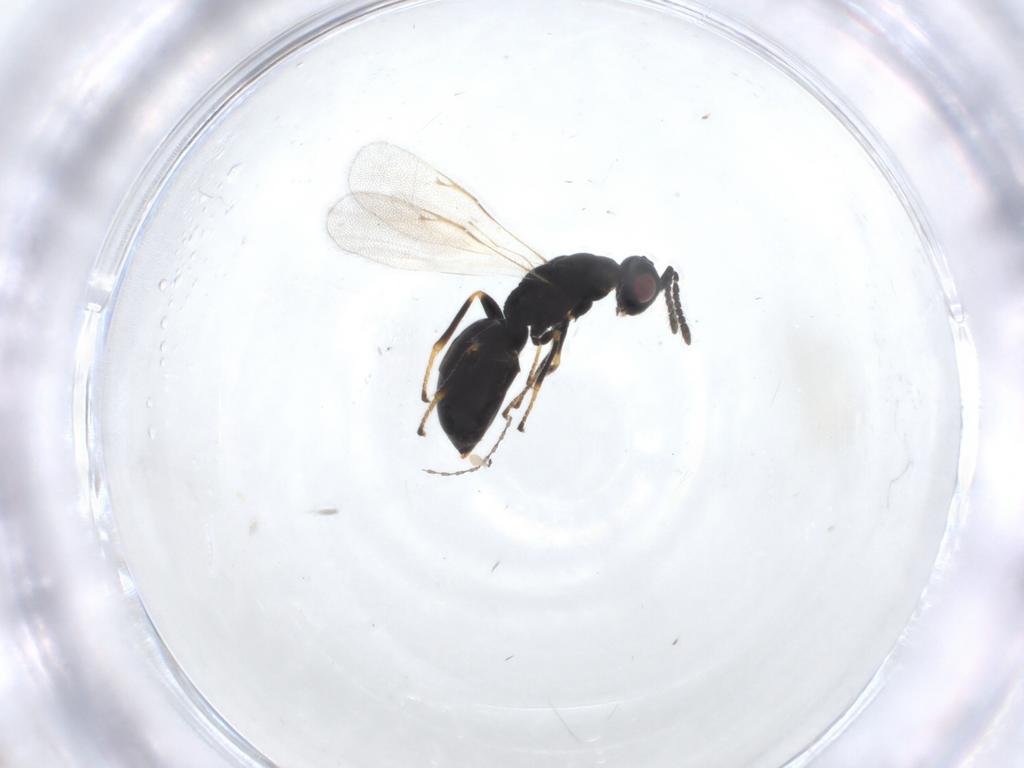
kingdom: Animalia
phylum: Arthropoda
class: Insecta
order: Hymenoptera
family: Eurytomidae
